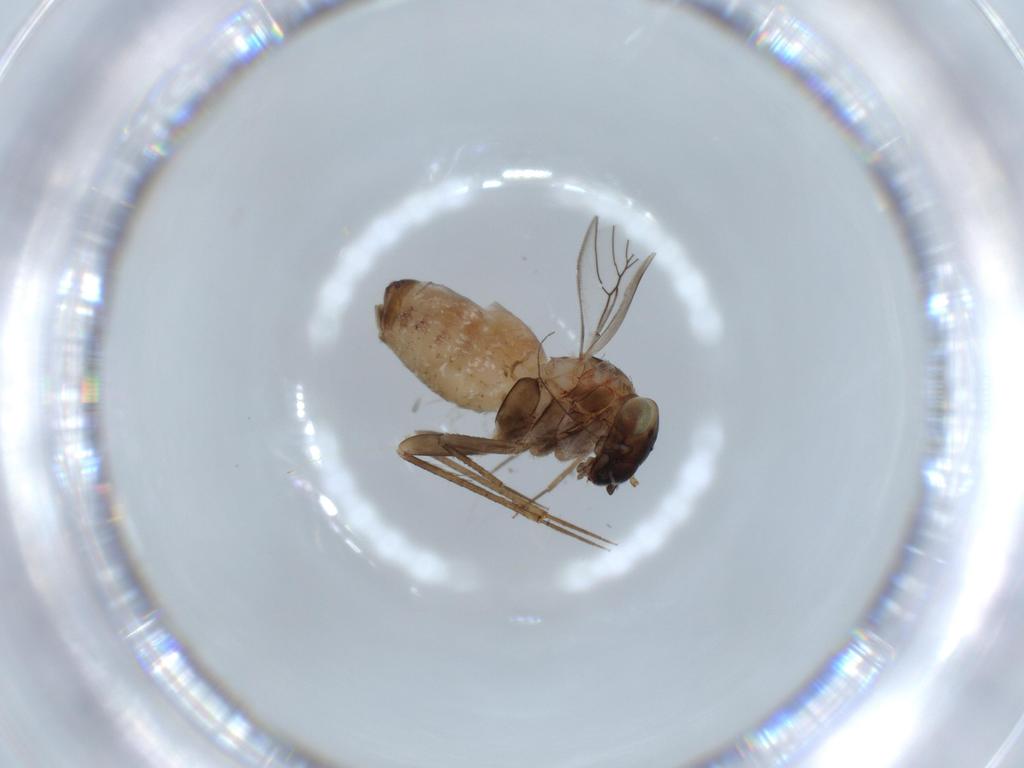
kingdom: Animalia
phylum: Arthropoda
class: Insecta
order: Psocodea
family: Lepidopsocidae
